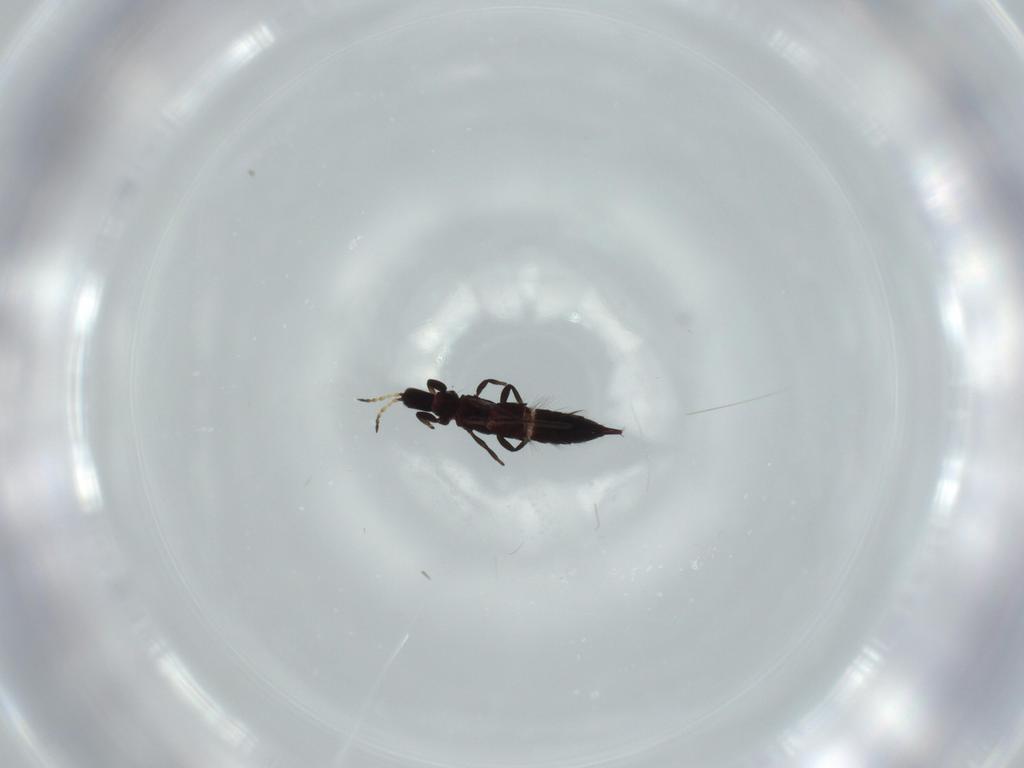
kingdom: Animalia
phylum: Arthropoda
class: Insecta
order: Thysanoptera
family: Phlaeothripidae
